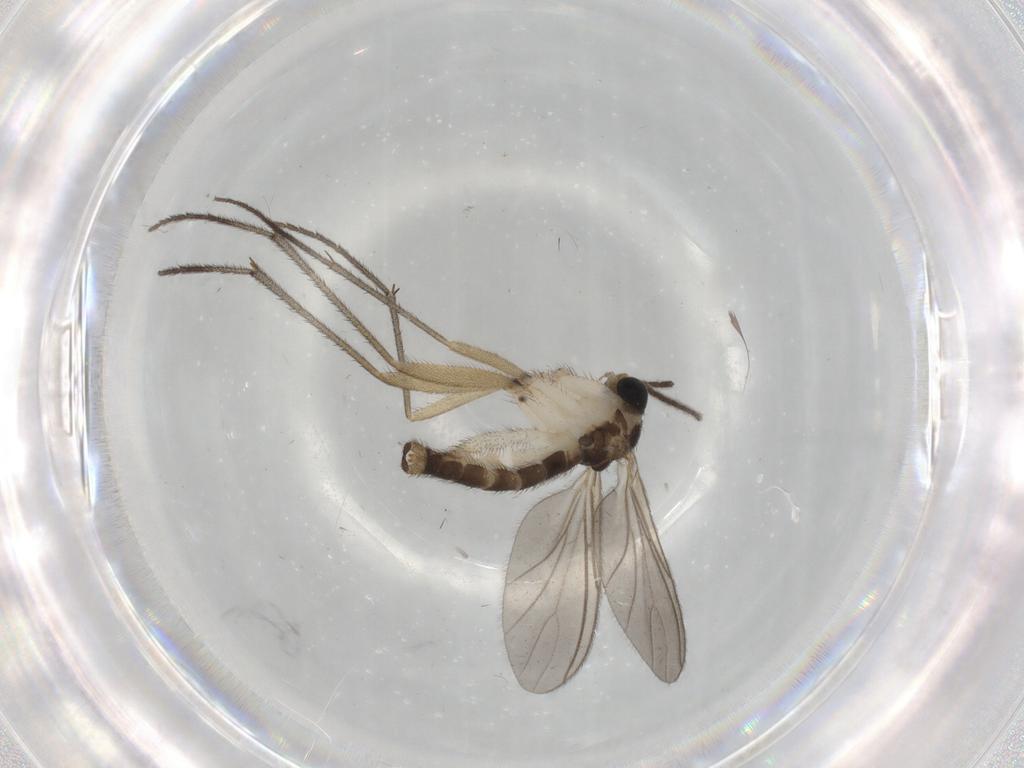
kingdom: Animalia
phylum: Arthropoda
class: Insecta
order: Diptera
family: Sciaridae
